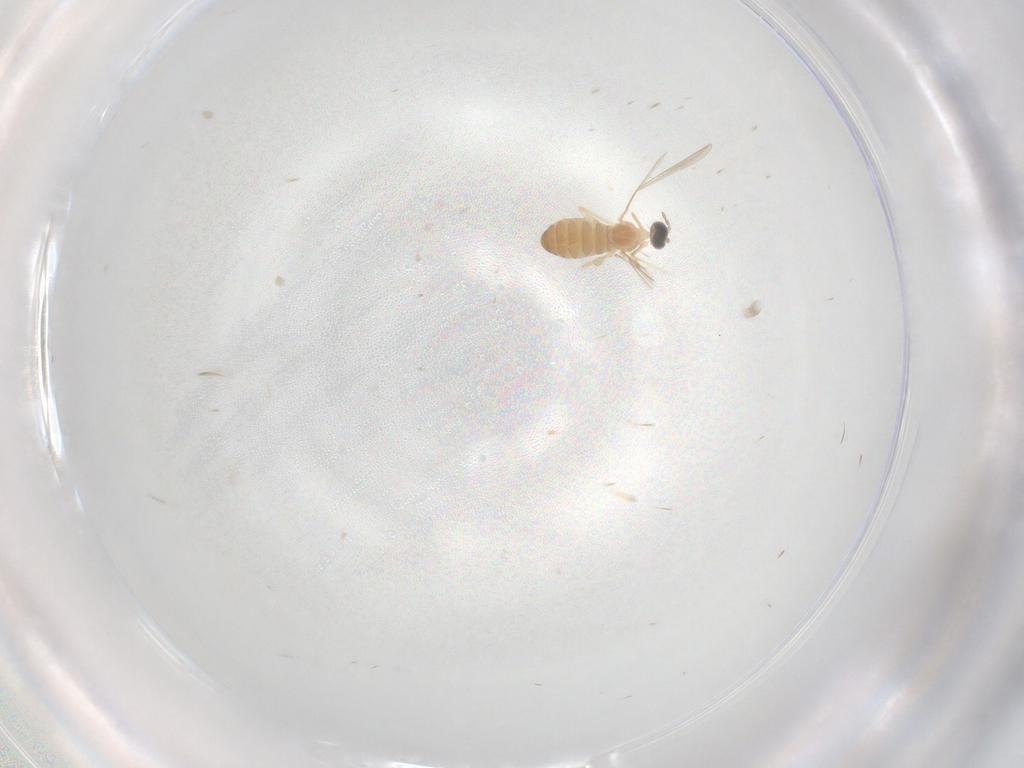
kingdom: Animalia
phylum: Arthropoda
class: Insecta
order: Diptera
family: Cecidomyiidae
